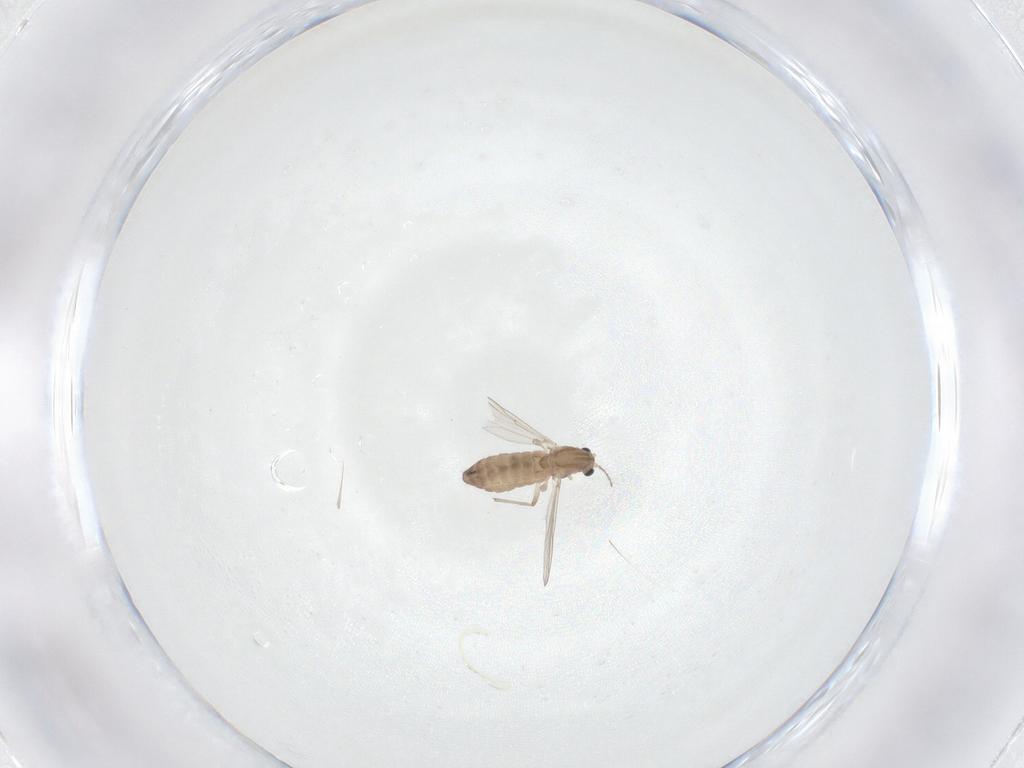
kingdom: Animalia
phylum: Arthropoda
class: Insecta
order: Diptera
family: Chironomidae
